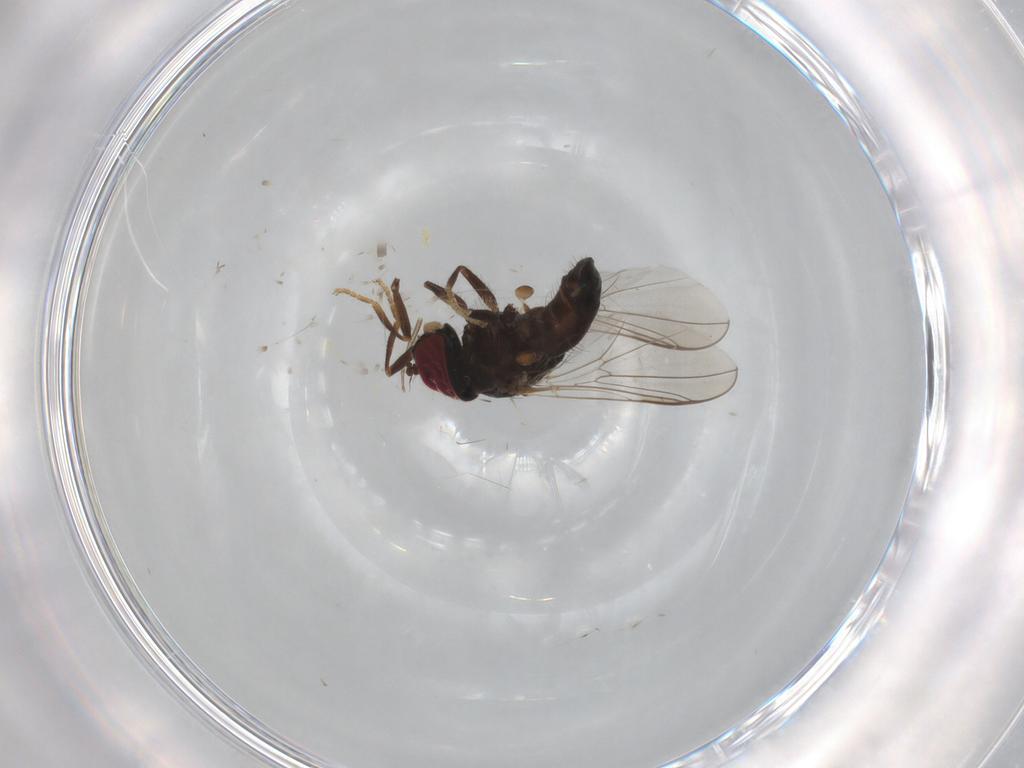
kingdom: Animalia
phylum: Arthropoda
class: Insecta
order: Diptera
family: Pipunculidae
